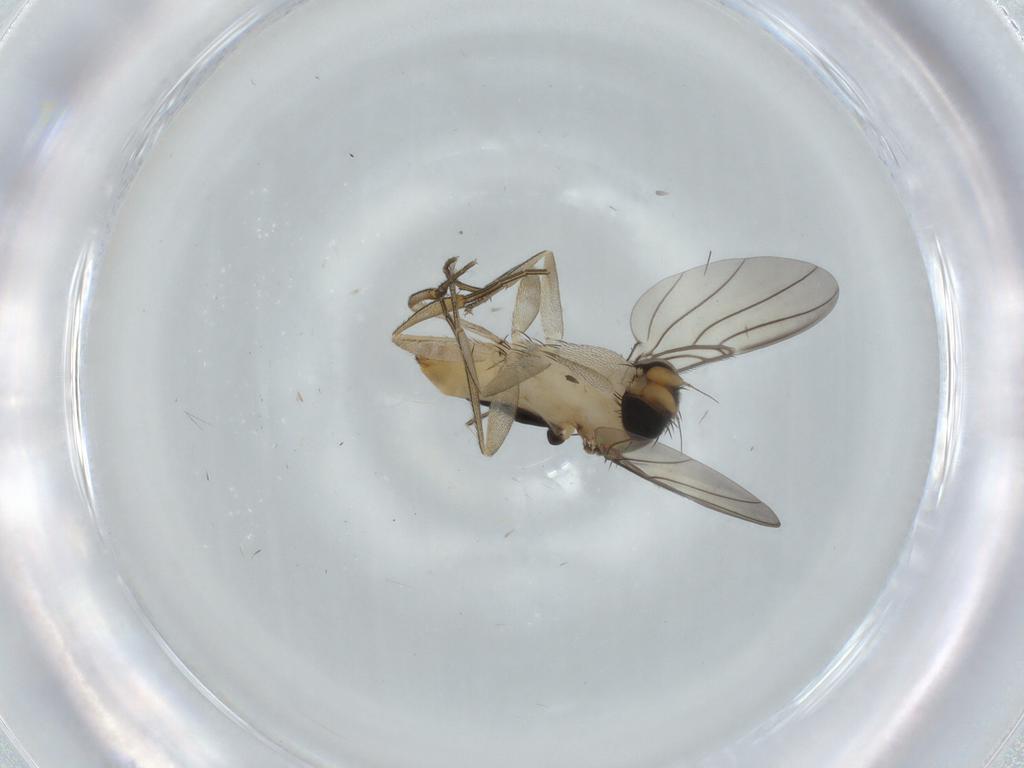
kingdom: Animalia
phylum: Arthropoda
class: Insecta
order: Diptera
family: Phoridae
